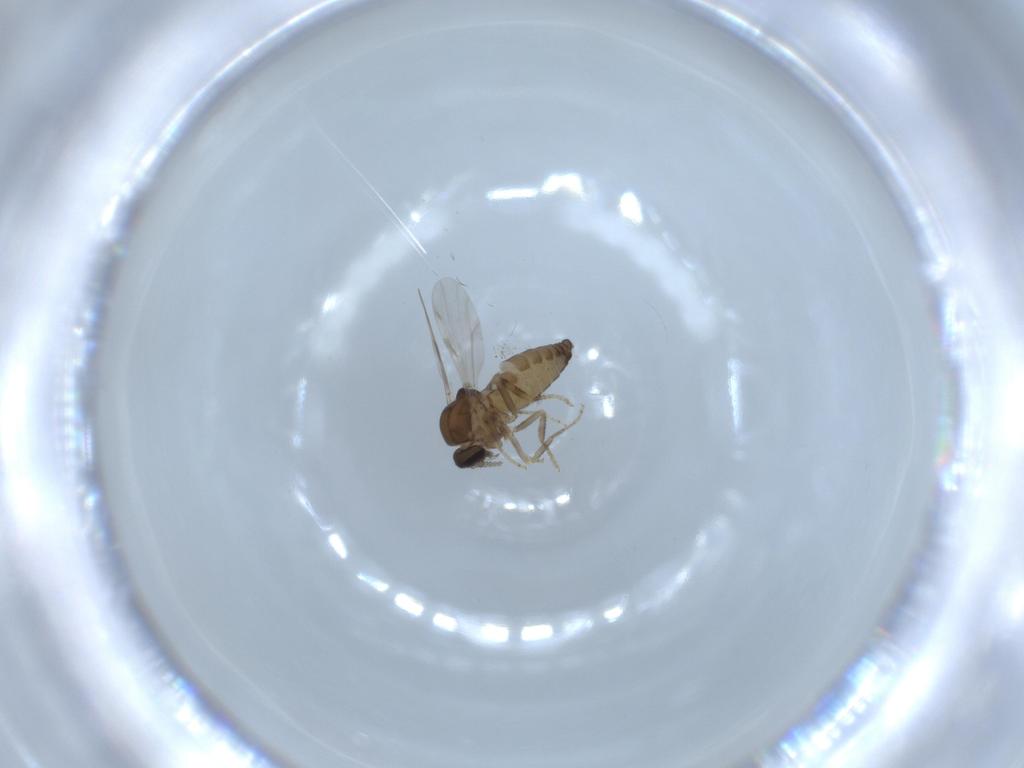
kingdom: Animalia
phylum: Arthropoda
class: Insecta
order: Diptera
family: Ceratopogonidae
